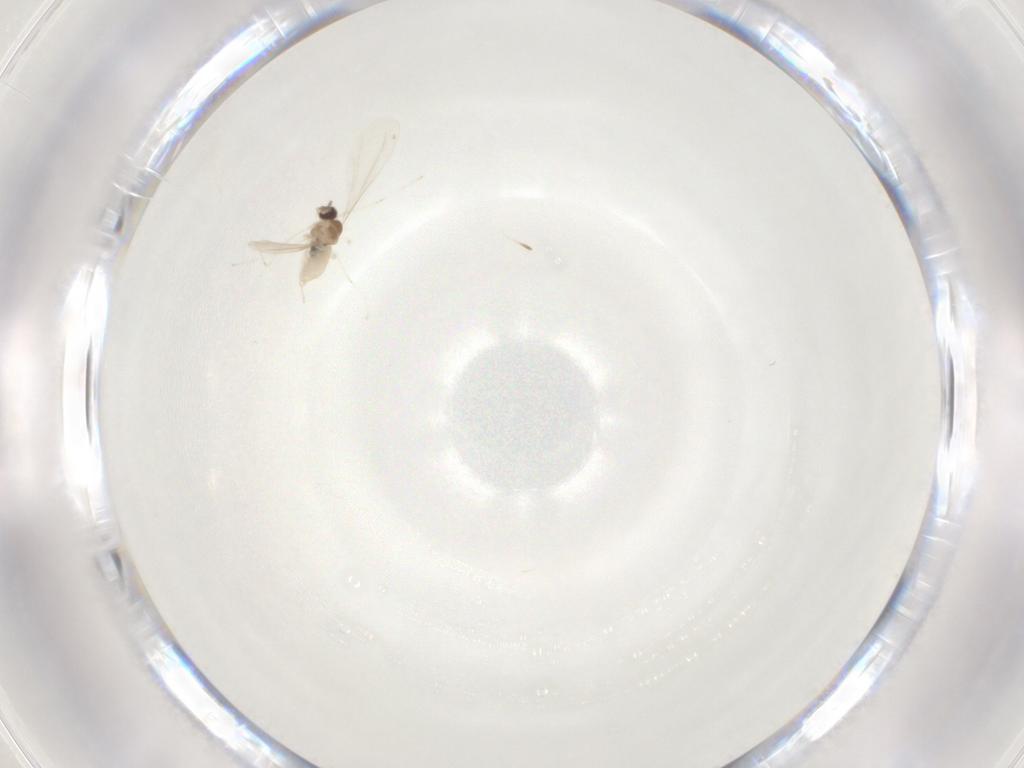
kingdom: Animalia
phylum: Arthropoda
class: Insecta
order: Diptera
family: Cecidomyiidae
